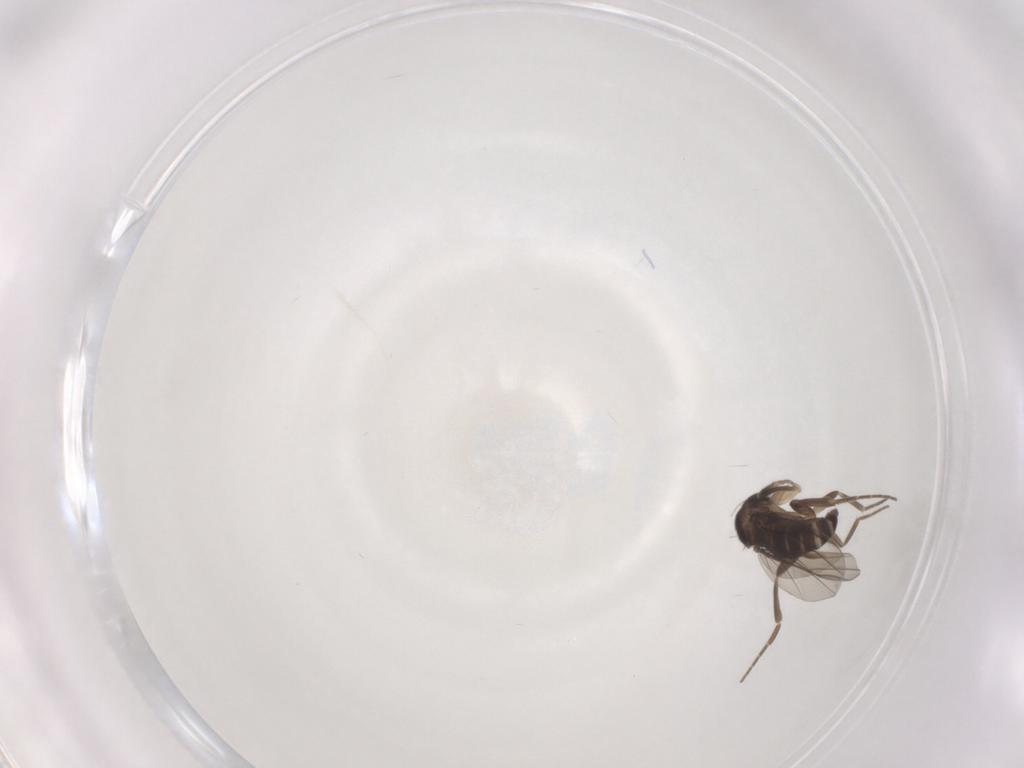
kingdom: Animalia
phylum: Arthropoda
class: Insecta
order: Diptera
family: Phoridae
